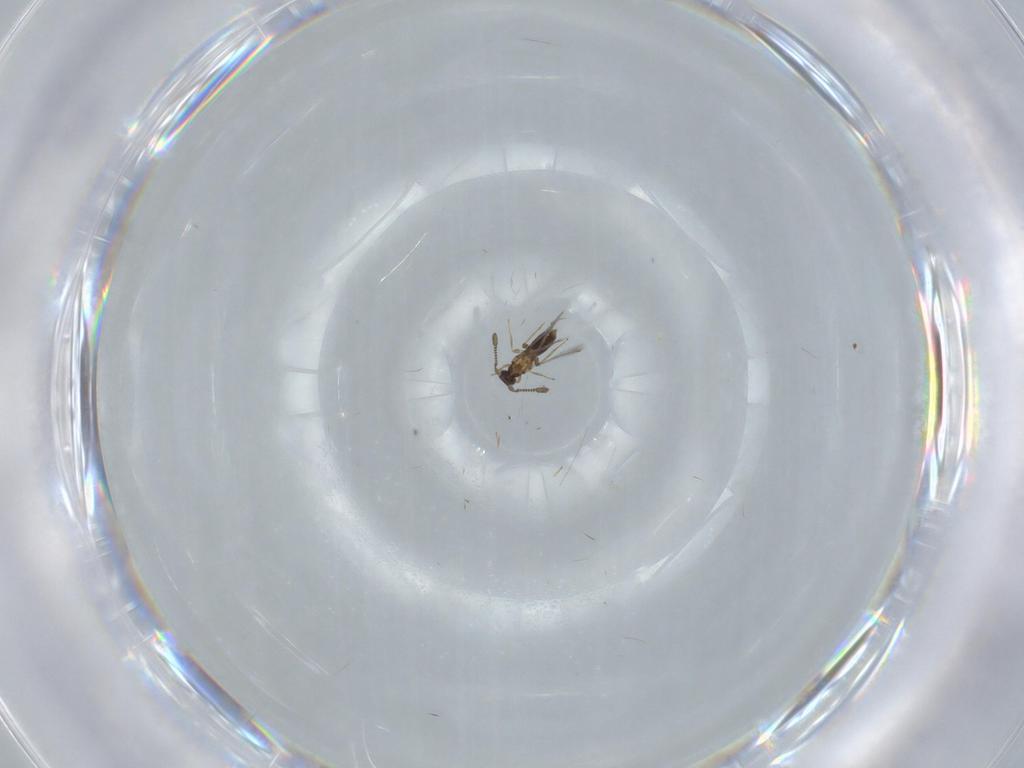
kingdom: Animalia
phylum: Arthropoda
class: Insecta
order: Hymenoptera
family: Mymaridae
